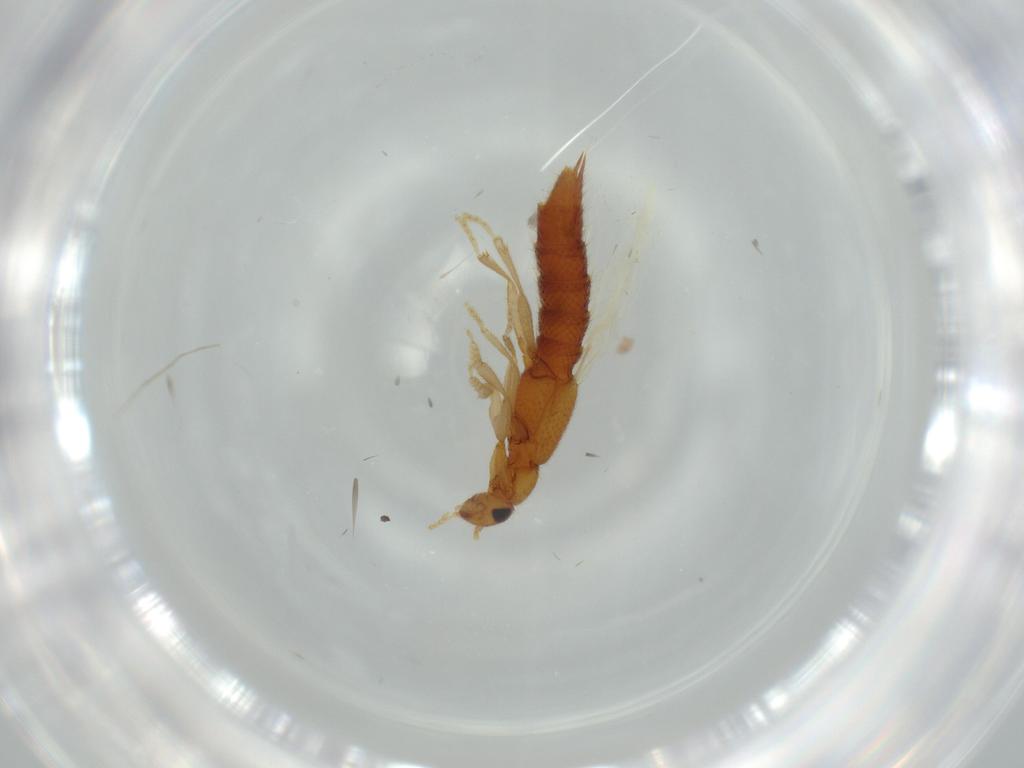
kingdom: Animalia
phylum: Arthropoda
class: Insecta
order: Coleoptera
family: Staphylinidae
